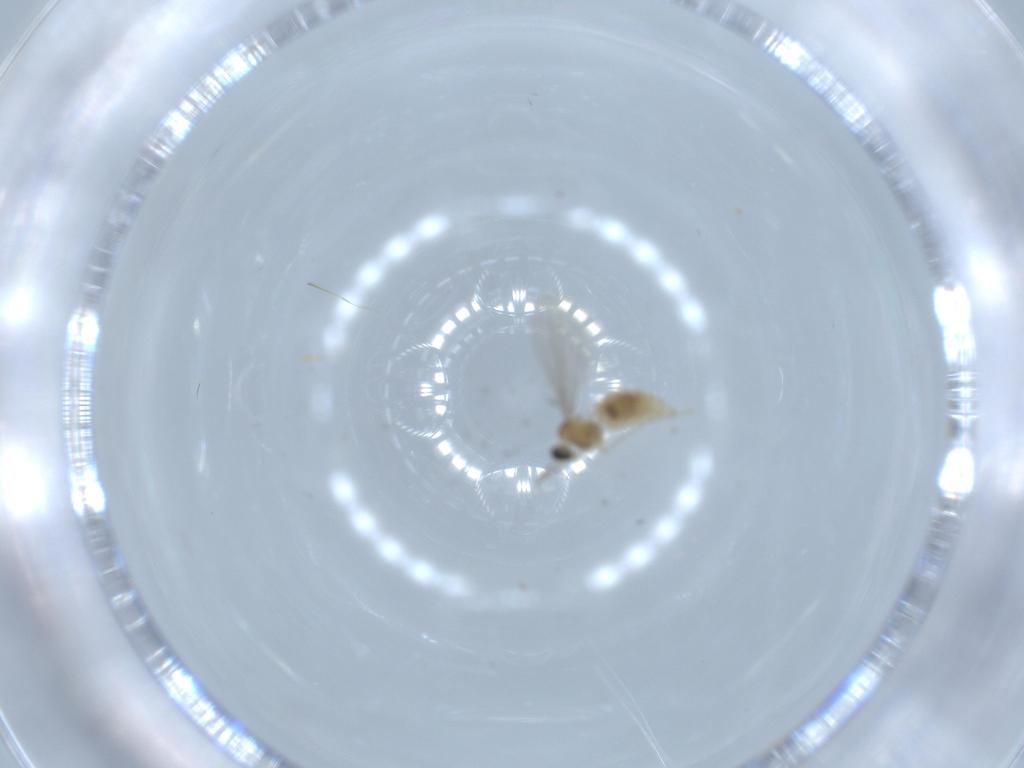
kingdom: Animalia
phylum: Arthropoda
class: Insecta
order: Diptera
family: Cecidomyiidae
